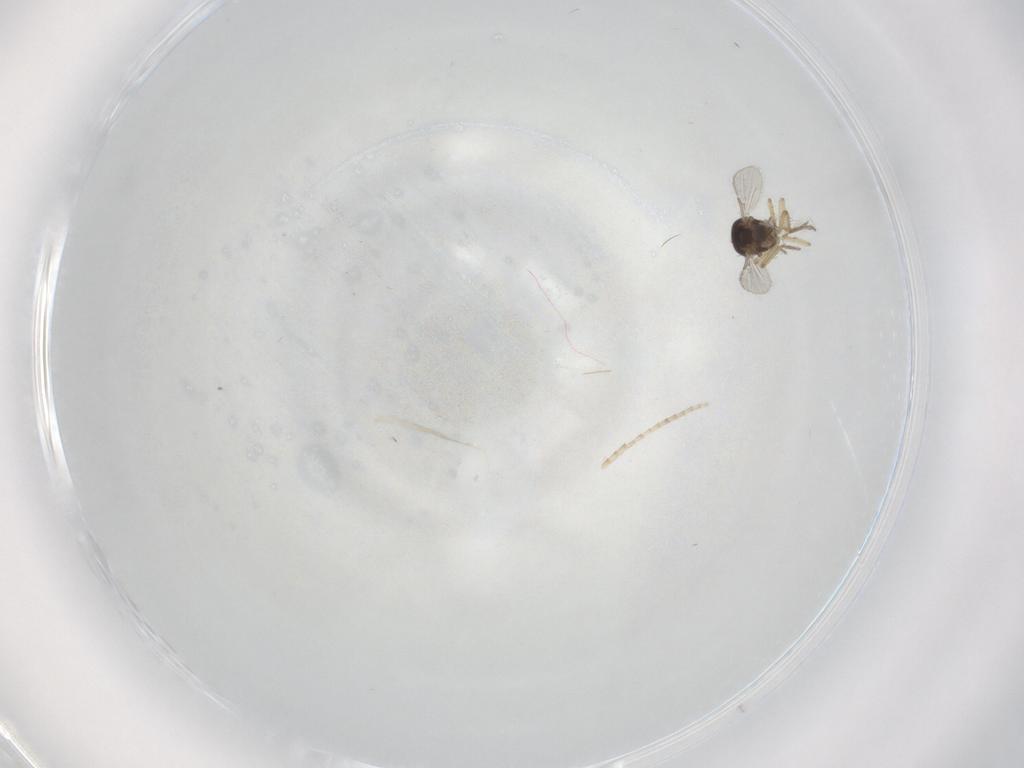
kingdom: Animalia
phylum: Arthropoda
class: Insecta
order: Diptera
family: Ceratopogonidae
